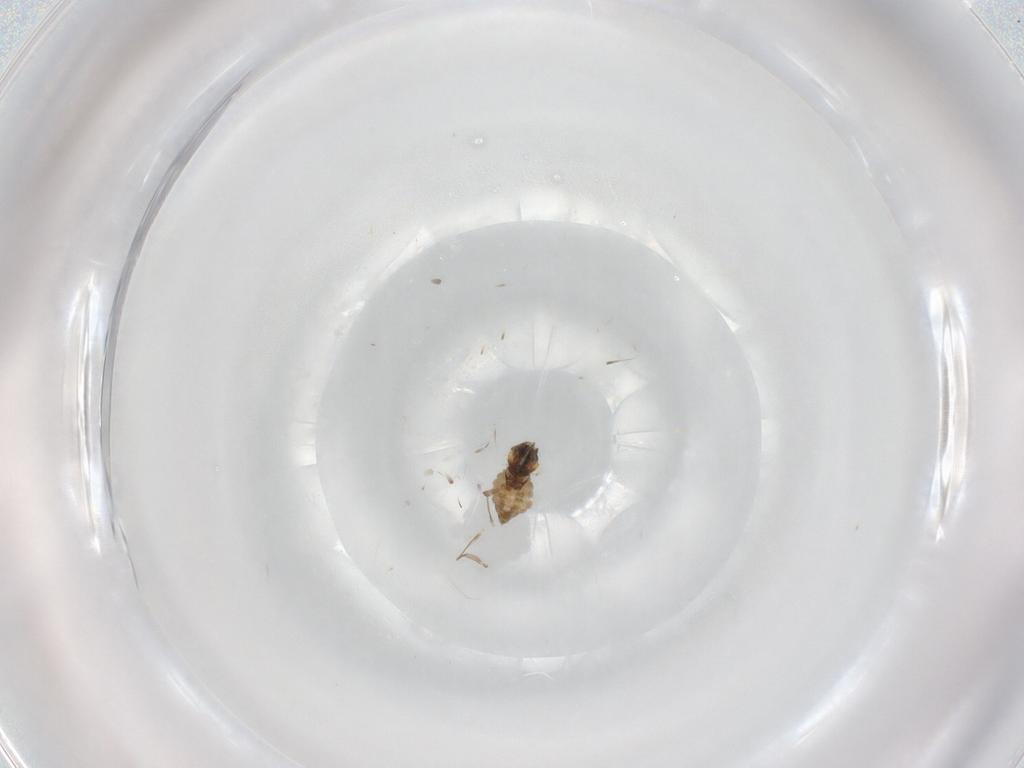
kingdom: Animalia
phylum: Arthropoda
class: Insecta
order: Diptera
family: Cecidomyiidae
